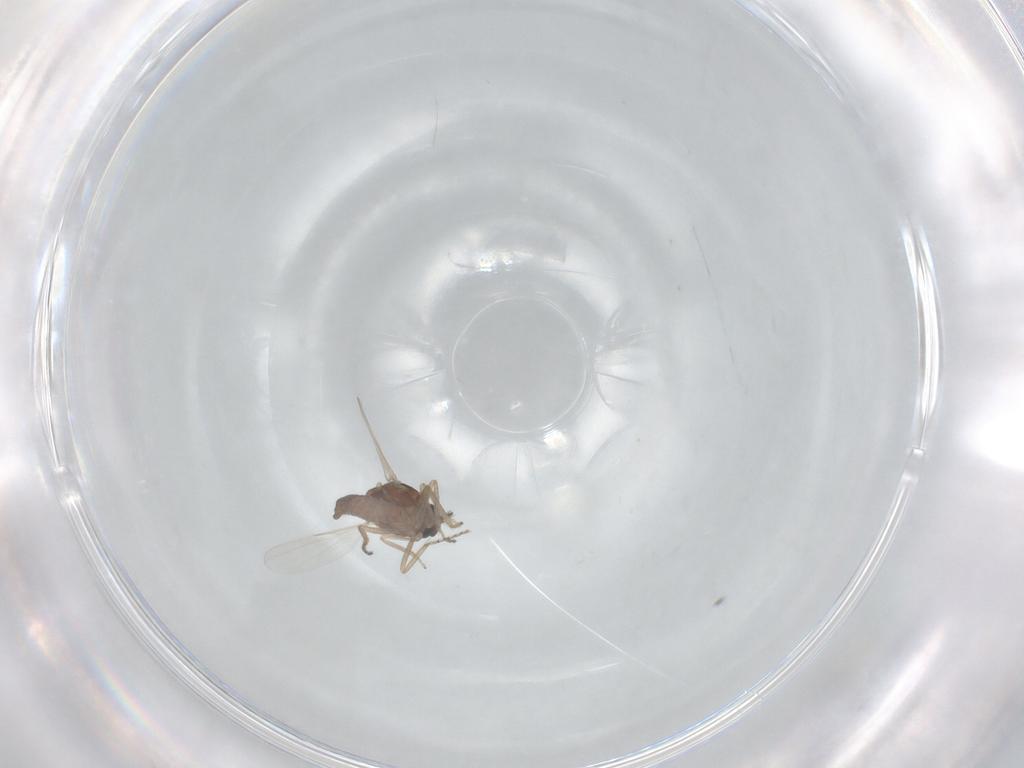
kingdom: Animalia
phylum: Arthropoda
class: Insecta
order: Diptera
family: Ceratopogonidae
